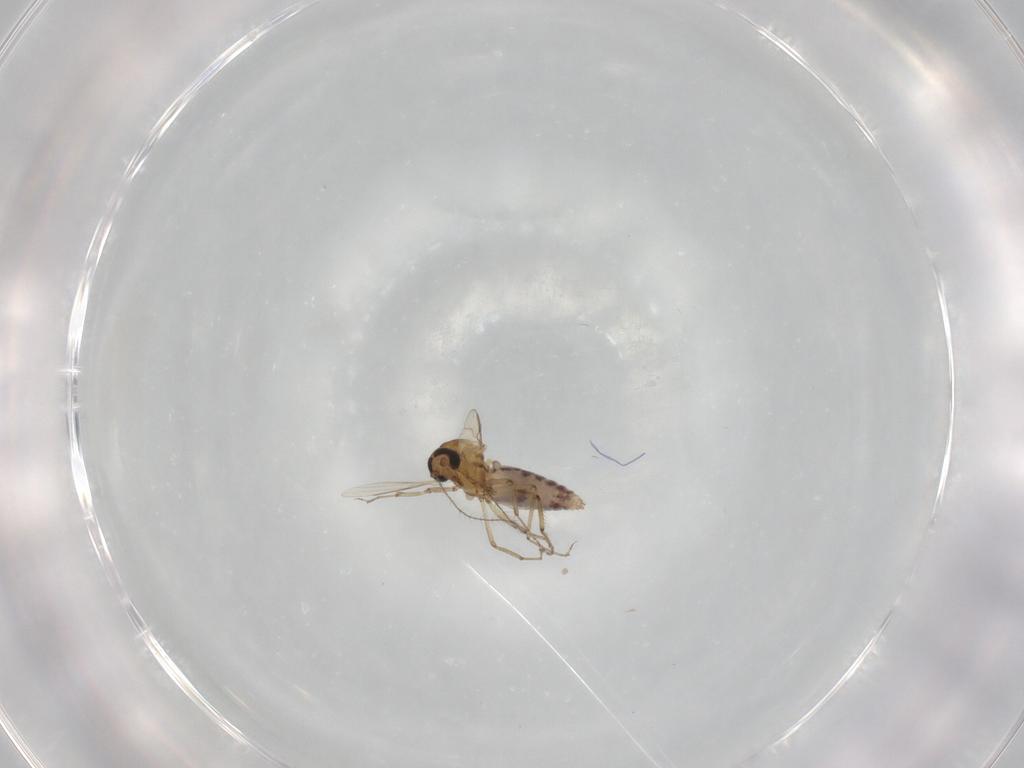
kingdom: Animalia
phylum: Arthropoda
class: Insecta
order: Diptera
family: Ceratopogonidae
